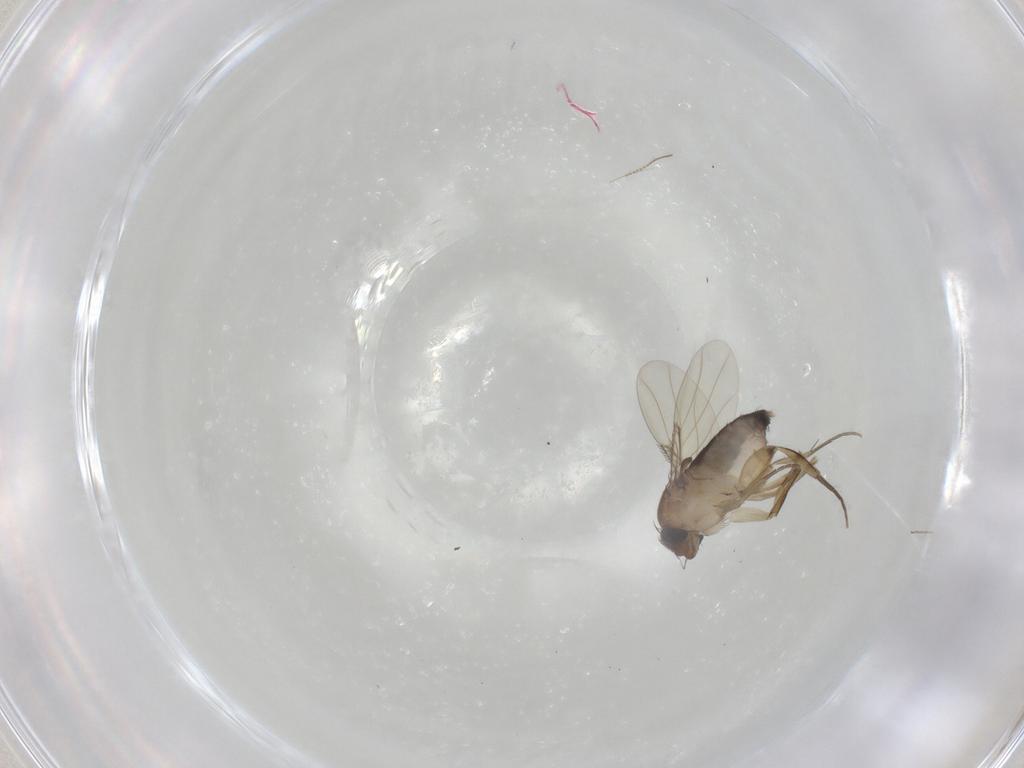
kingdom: Animalia
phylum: Arthropoda
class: Insecta
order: Diptera
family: Phoridae
